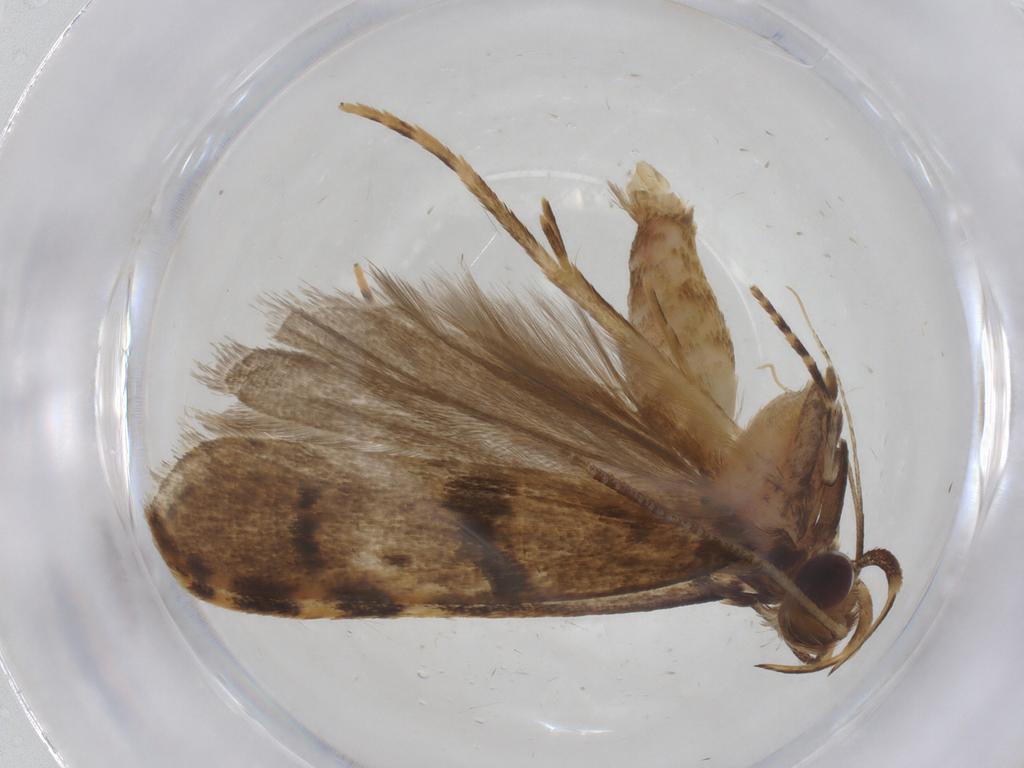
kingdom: Animalia
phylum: Arthropoda
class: Insecta
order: Lepidoptera
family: Autostichidae
